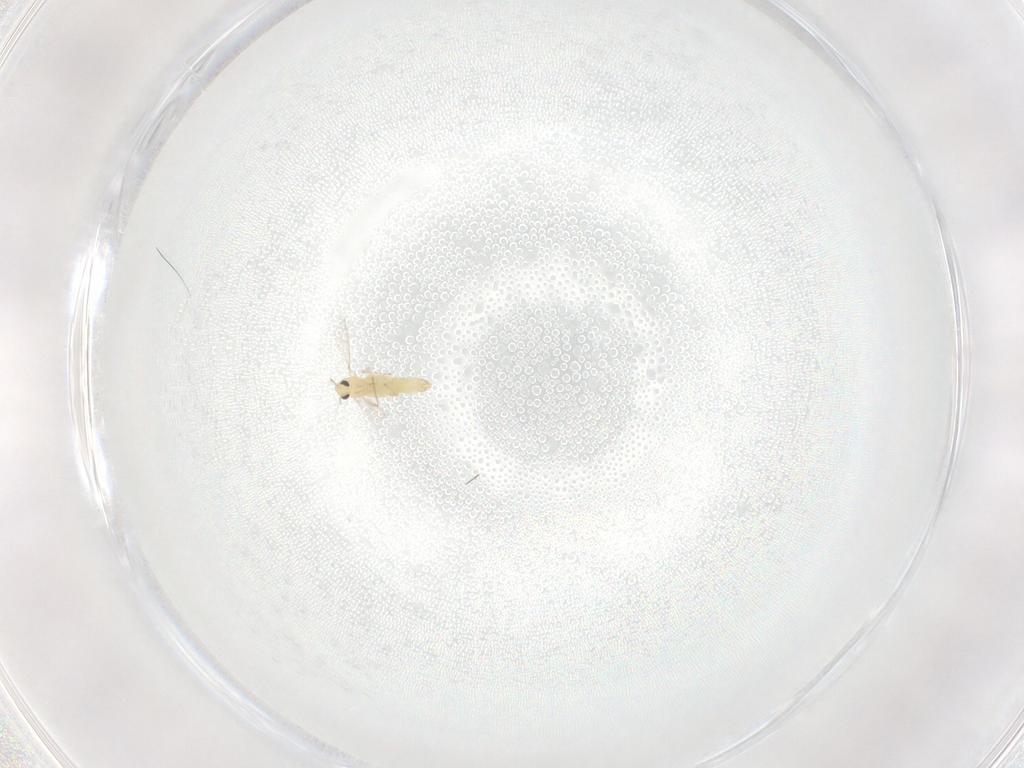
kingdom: Animalia
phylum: Arthropoda
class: Insecta
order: Diptera
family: Chironomidae
